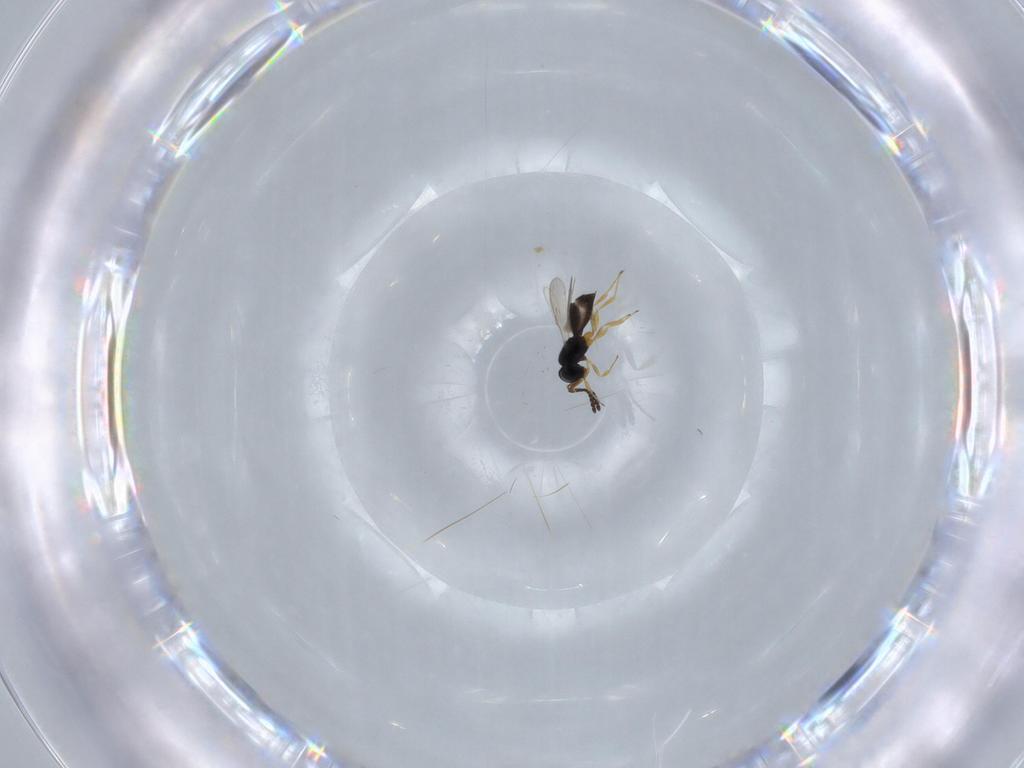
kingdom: Animalia
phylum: Arthropoda
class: Insecta
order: Hymenoptera
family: Scelionidae
